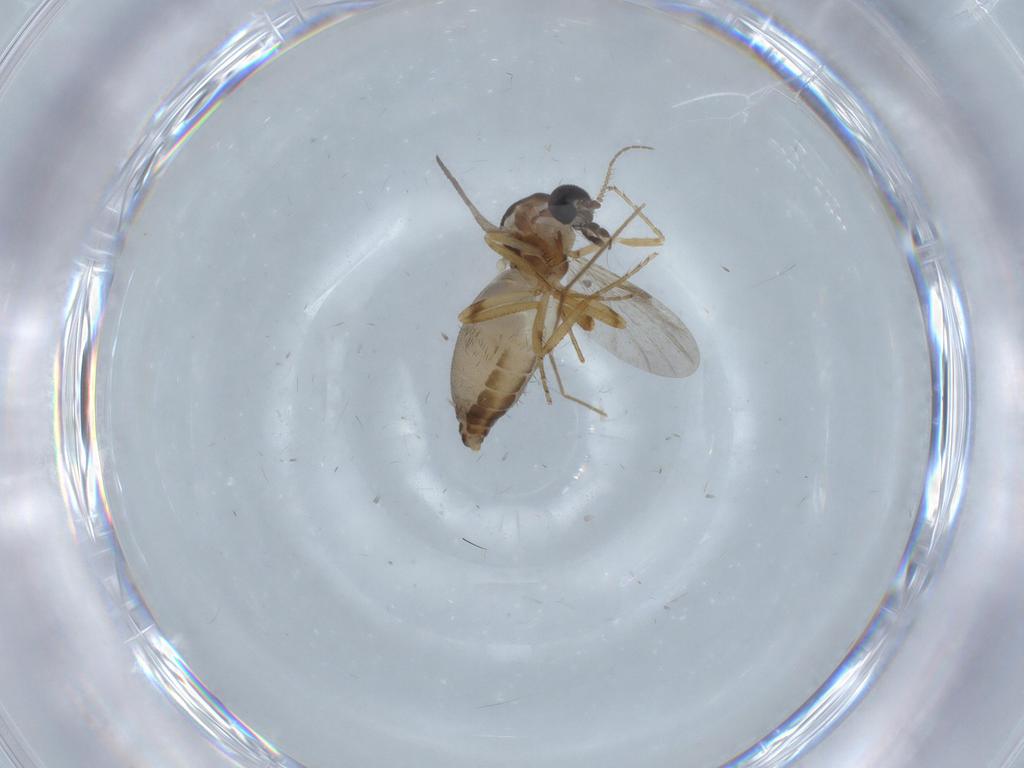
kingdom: Animalia
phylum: Arthropoda
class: Insecta
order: Diptera
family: Ceratopogonidae
